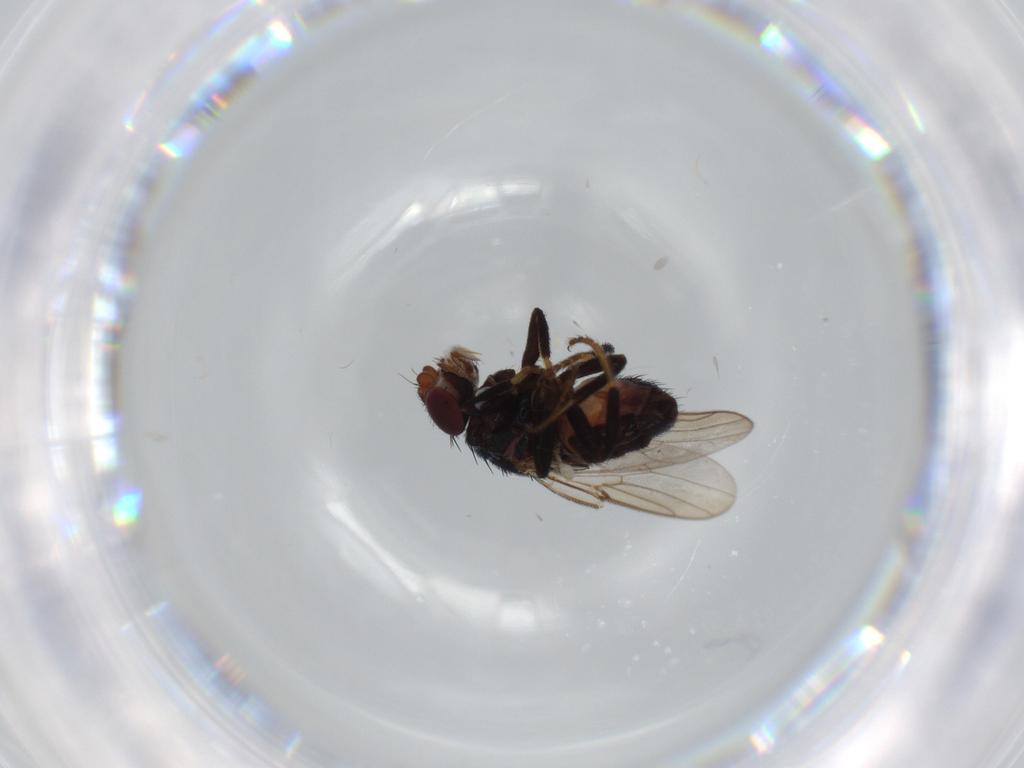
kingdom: Animalia
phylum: Arthropoda
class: Insecta
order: Diptera
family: Chloropidae
